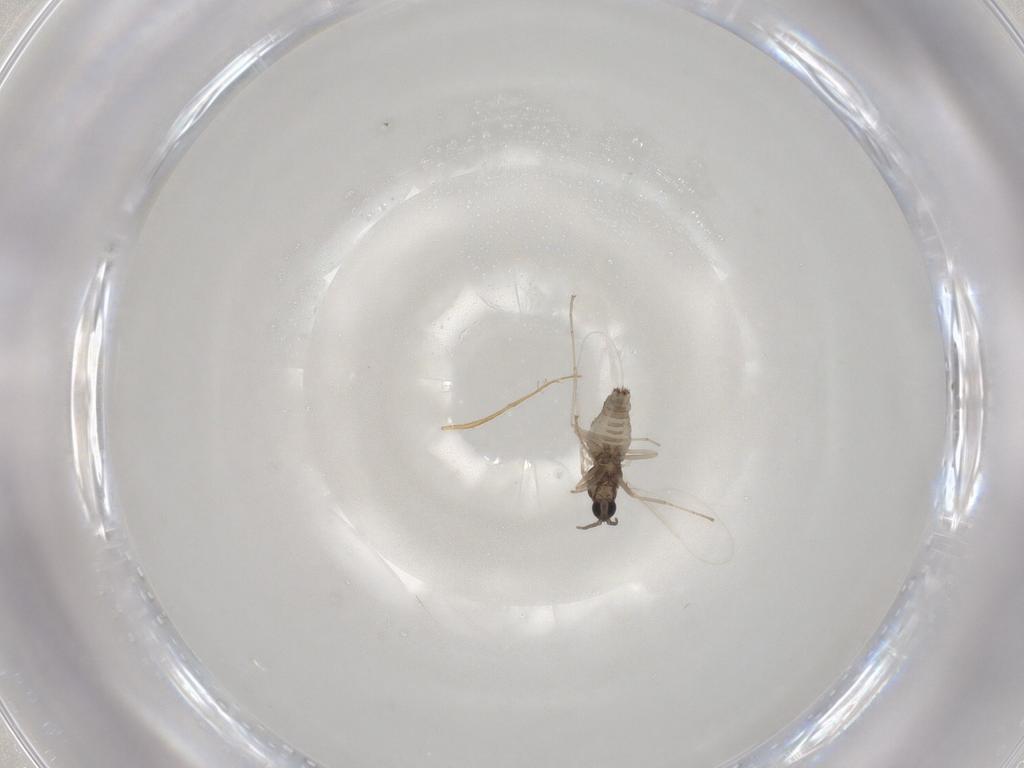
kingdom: Animalia
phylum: Arthropoda
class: Insecta
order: Diptera
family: Cecidomyiidae
